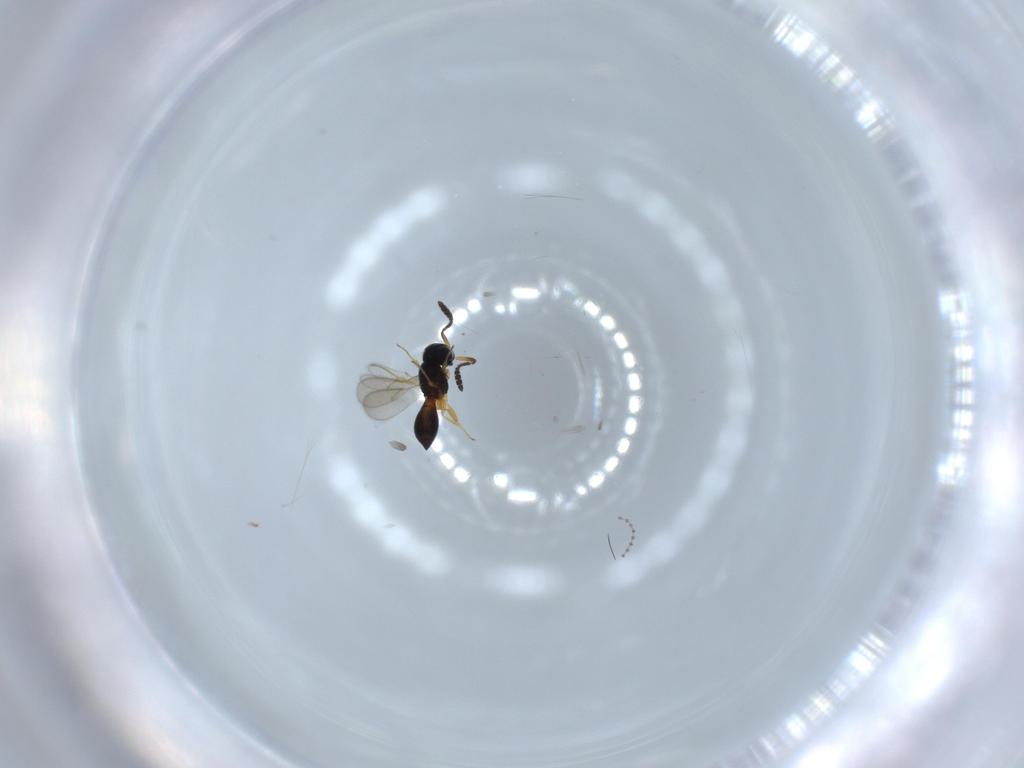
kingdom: Animalia
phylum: Arthropoda
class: Insecta
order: Hymenoptera
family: Scelionidae
